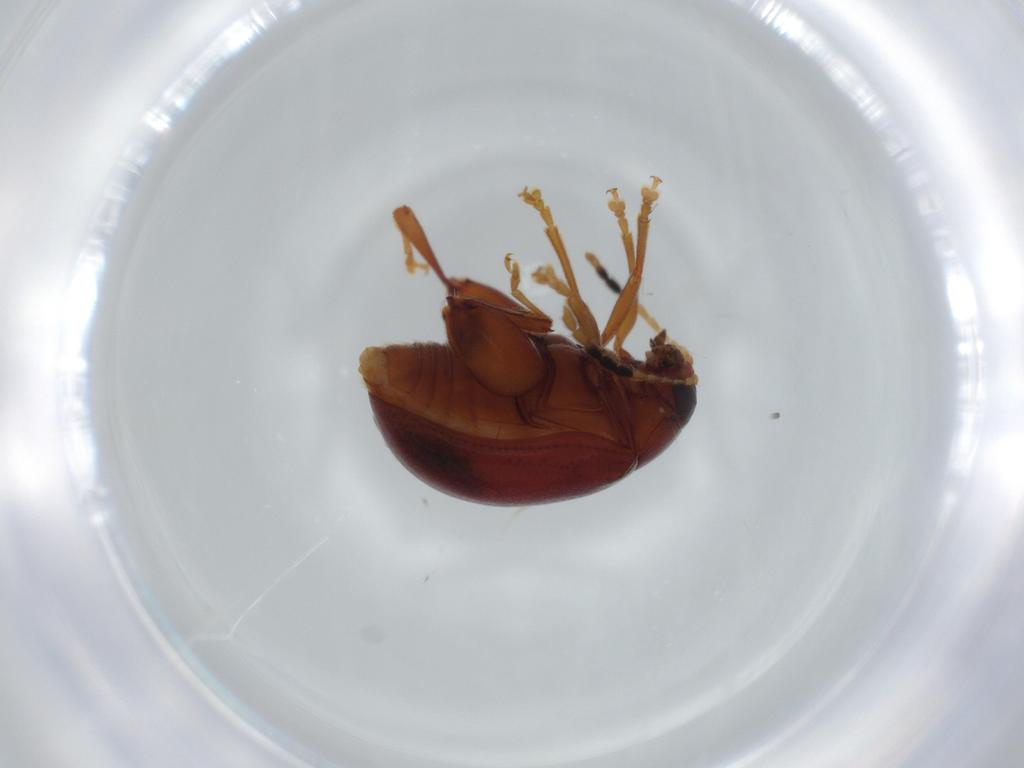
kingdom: Animalia
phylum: Arthropoda
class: Insecta
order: Coleoptera
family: Chrysomelidae
